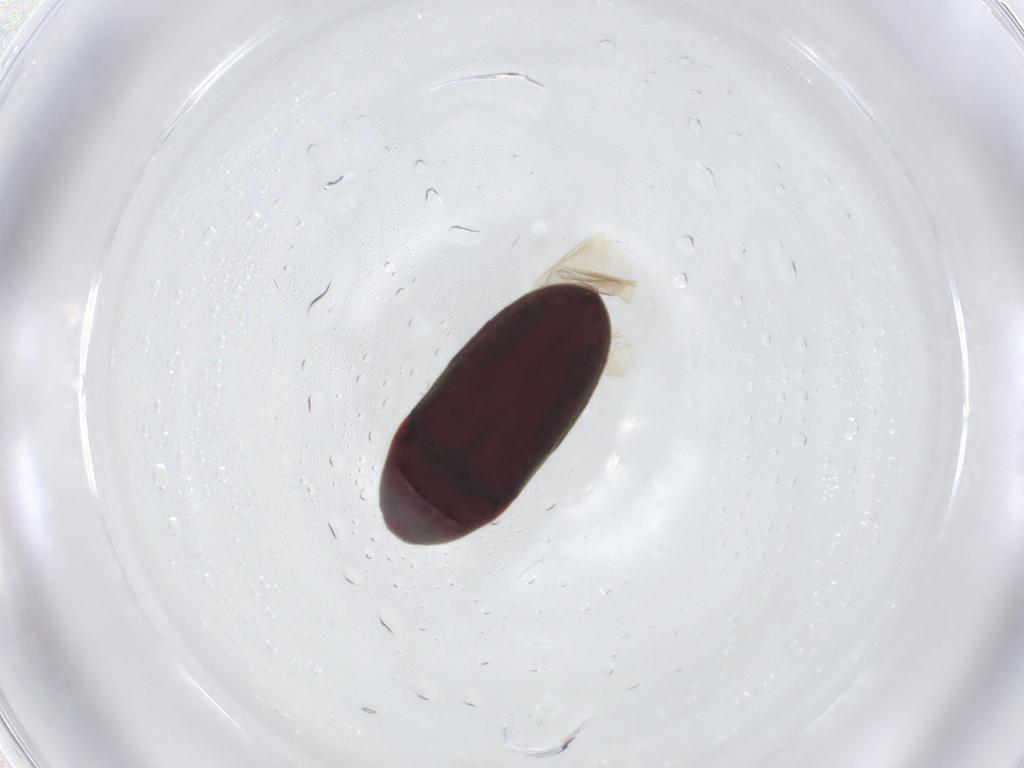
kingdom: Animalia
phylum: Arthropoda
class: Insecta
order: Coleoptera
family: Throscidae
